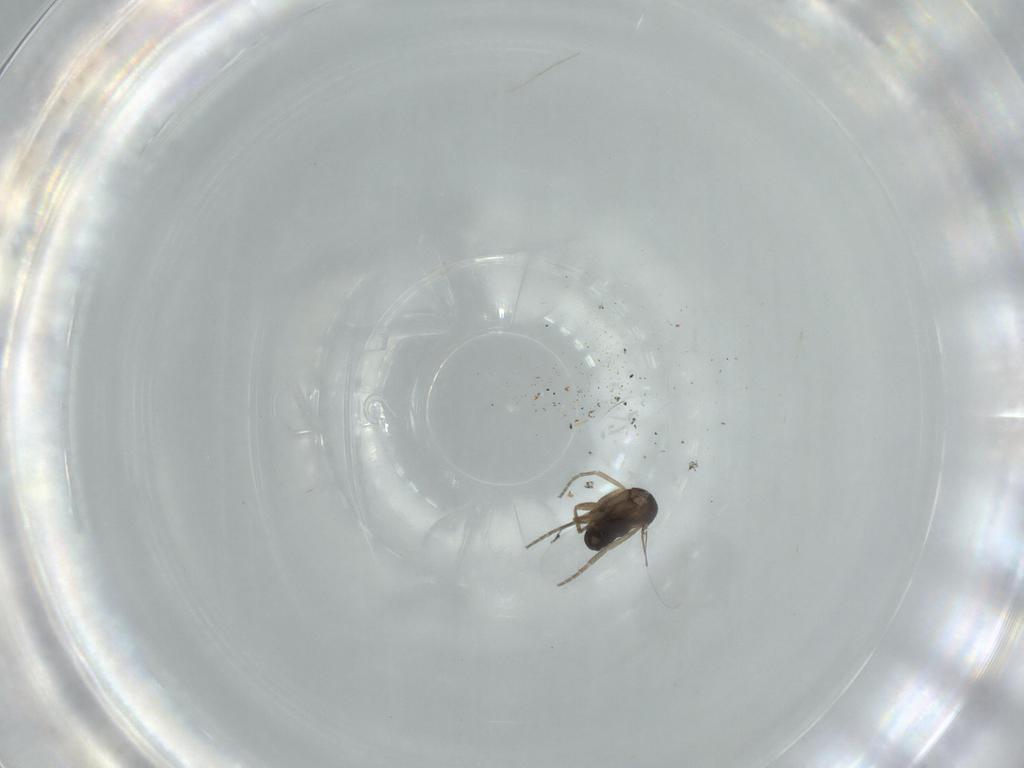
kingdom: Animalia
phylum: Arthropoda
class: Insecta
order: Diptera
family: Phoridae
